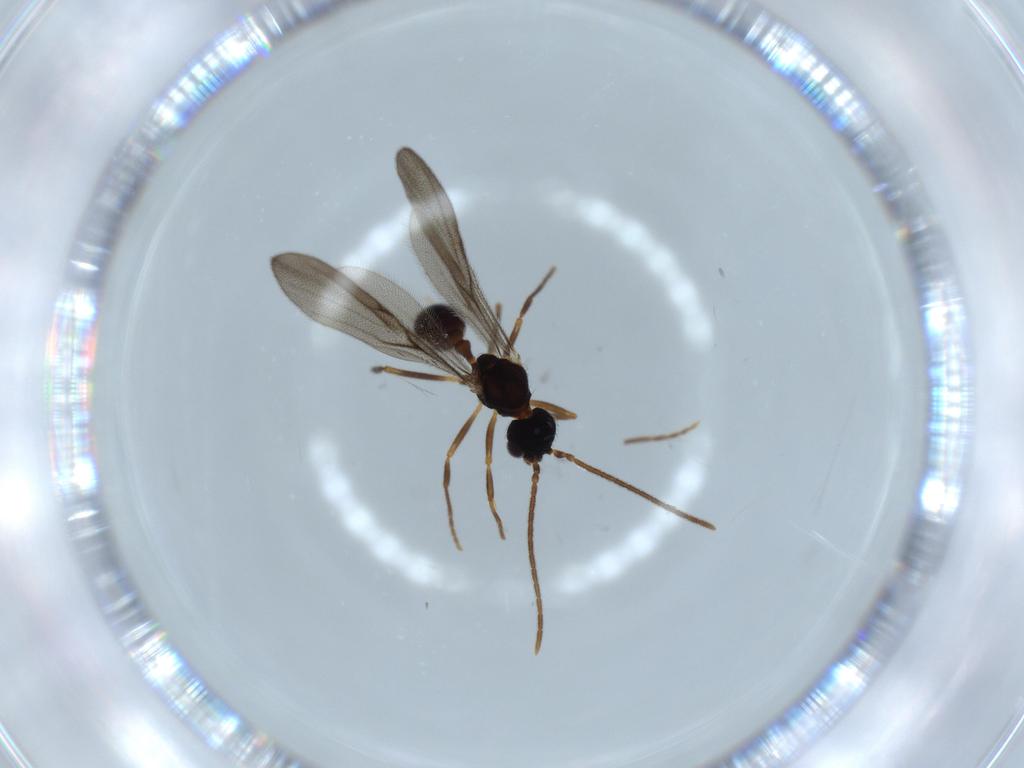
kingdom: Animalia
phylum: Arthropoda
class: Insecta
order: Hymenoptera
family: Formicidae
